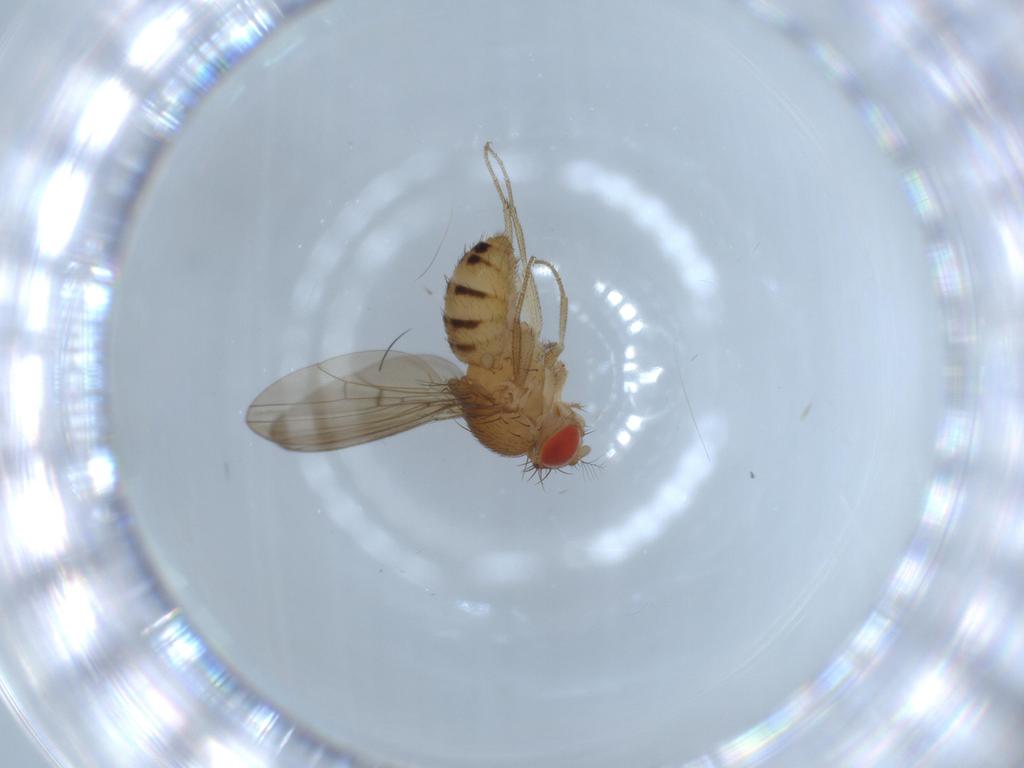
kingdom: Animalia
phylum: Arthropoda
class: Insecta
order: Diptera
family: Drosophilidae
